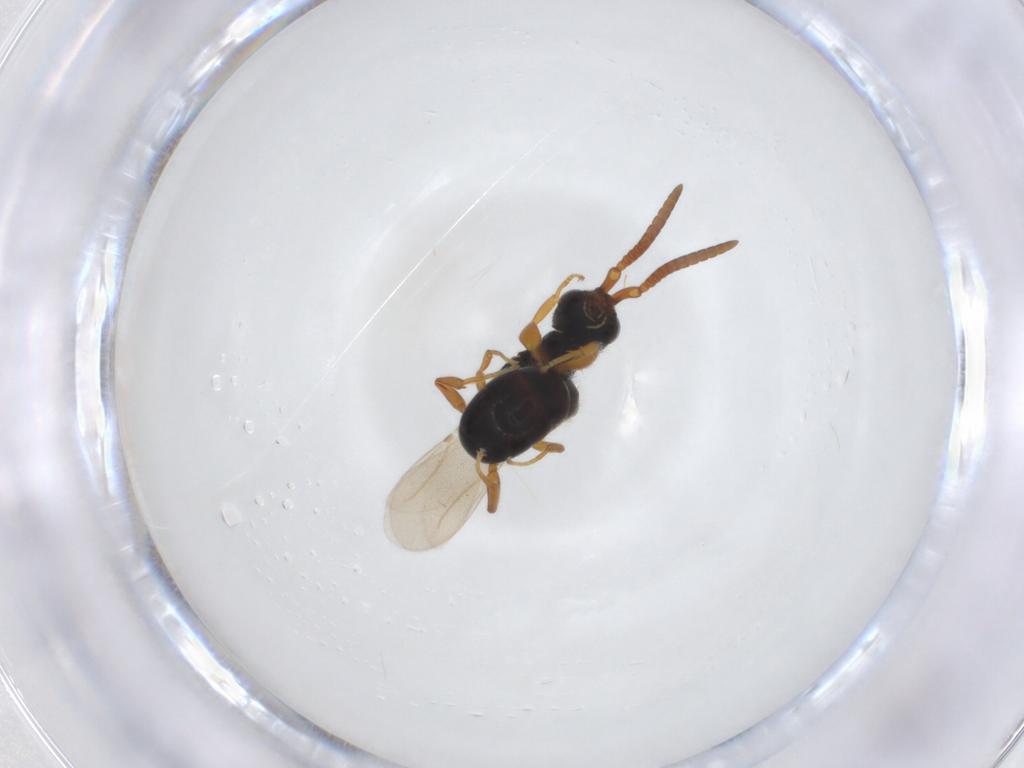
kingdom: Animalia
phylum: Arthropoda
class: Insecta
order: Hymenoptera
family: Bethylidae
